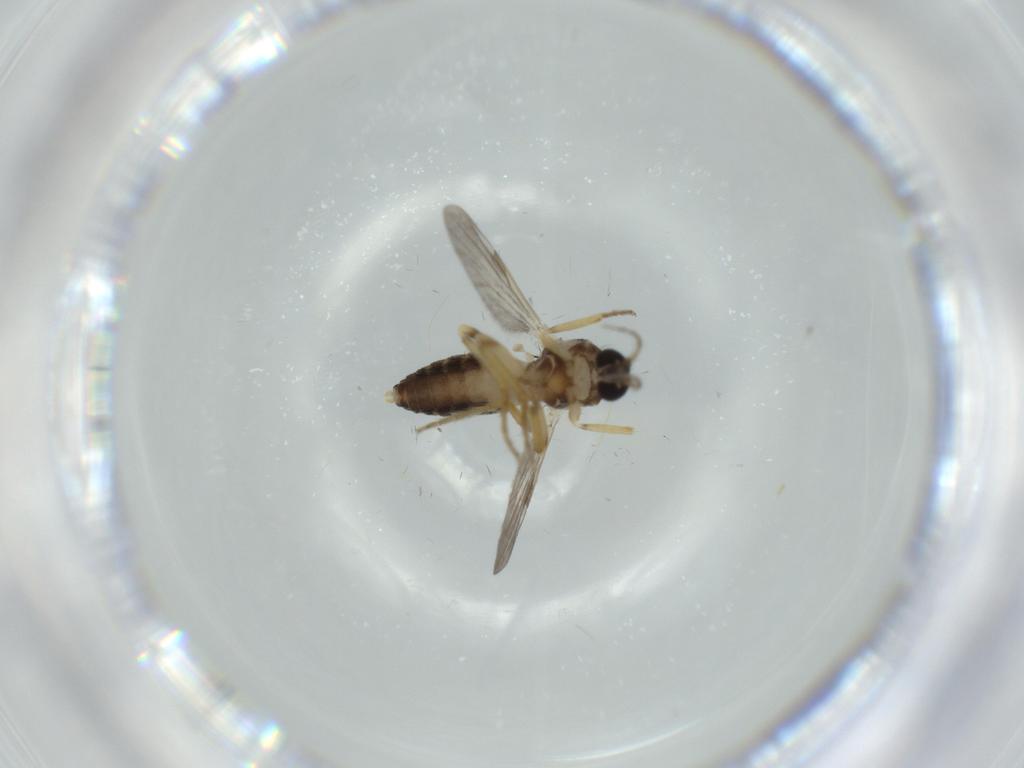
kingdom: Animalia
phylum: Arthropoda
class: Insecta
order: Diptera
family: Ceratopogonidae
